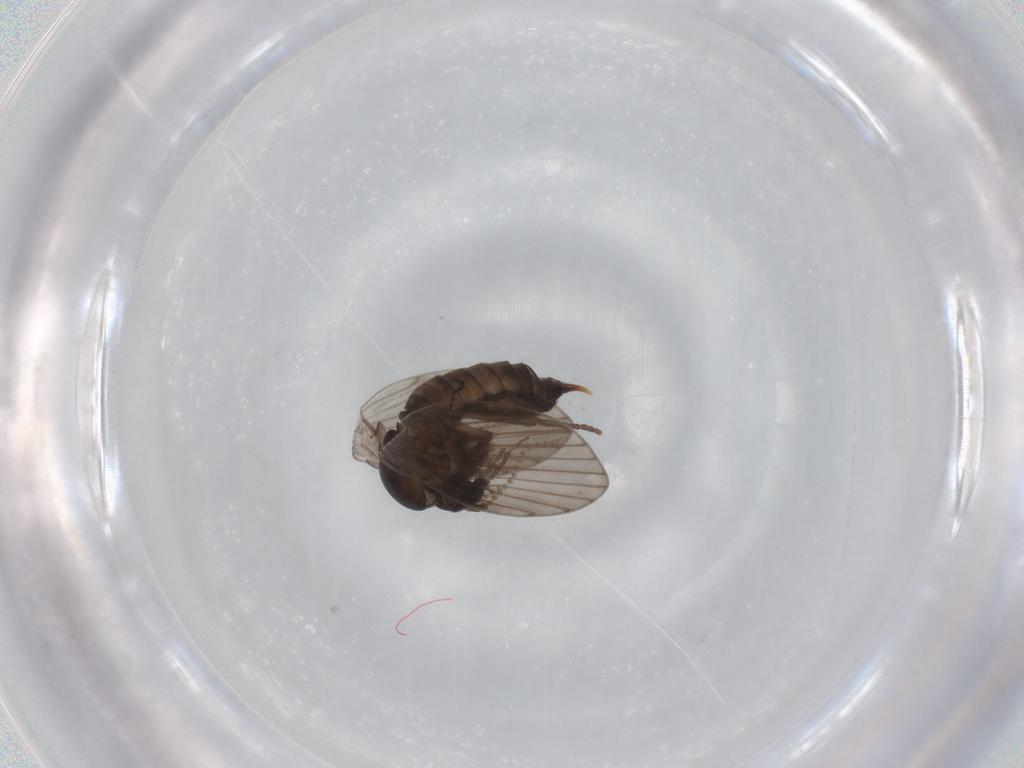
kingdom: Animalia
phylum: Arthropoda
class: Insecta
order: Diptera
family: Psychodidae
